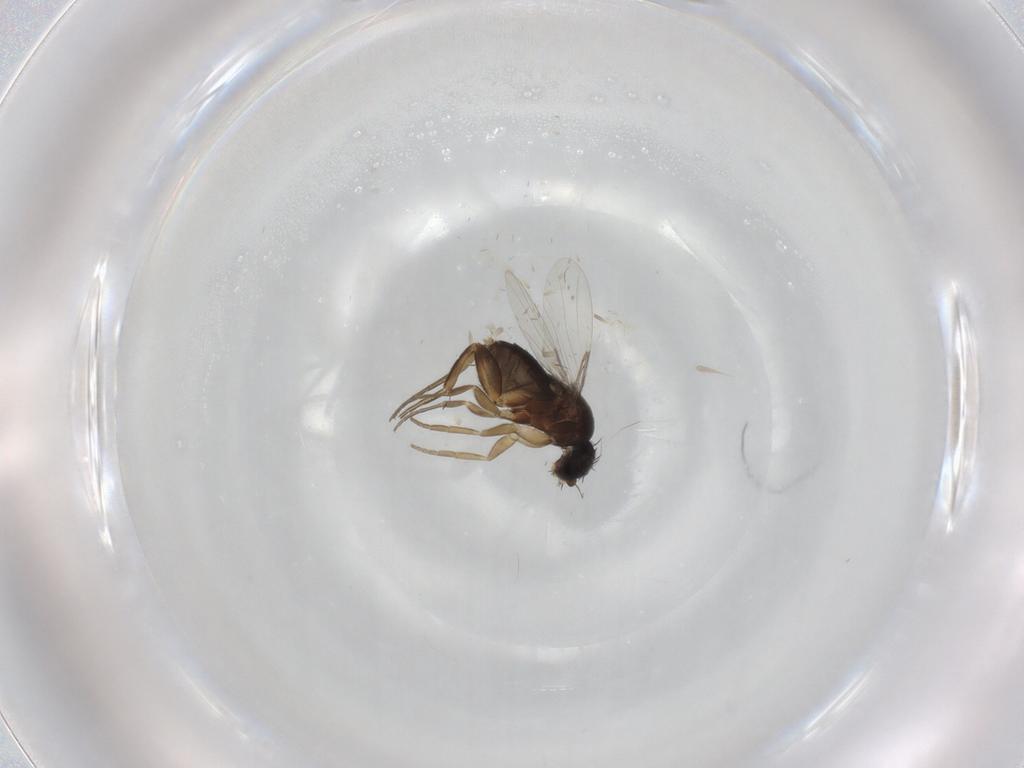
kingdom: Animalia
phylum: Arthropoda
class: Insecta
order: Diptera
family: Phoridae
